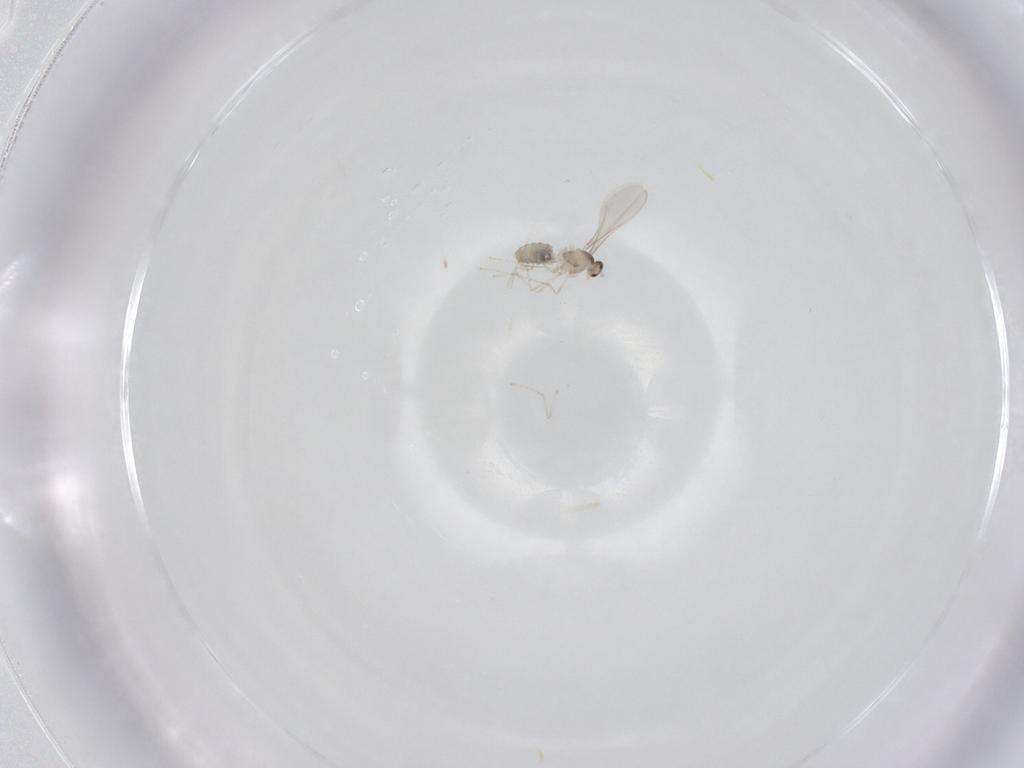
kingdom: Animalia
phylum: Arthropoda
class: Insecta
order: Diptera
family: Cecidomyiidae
